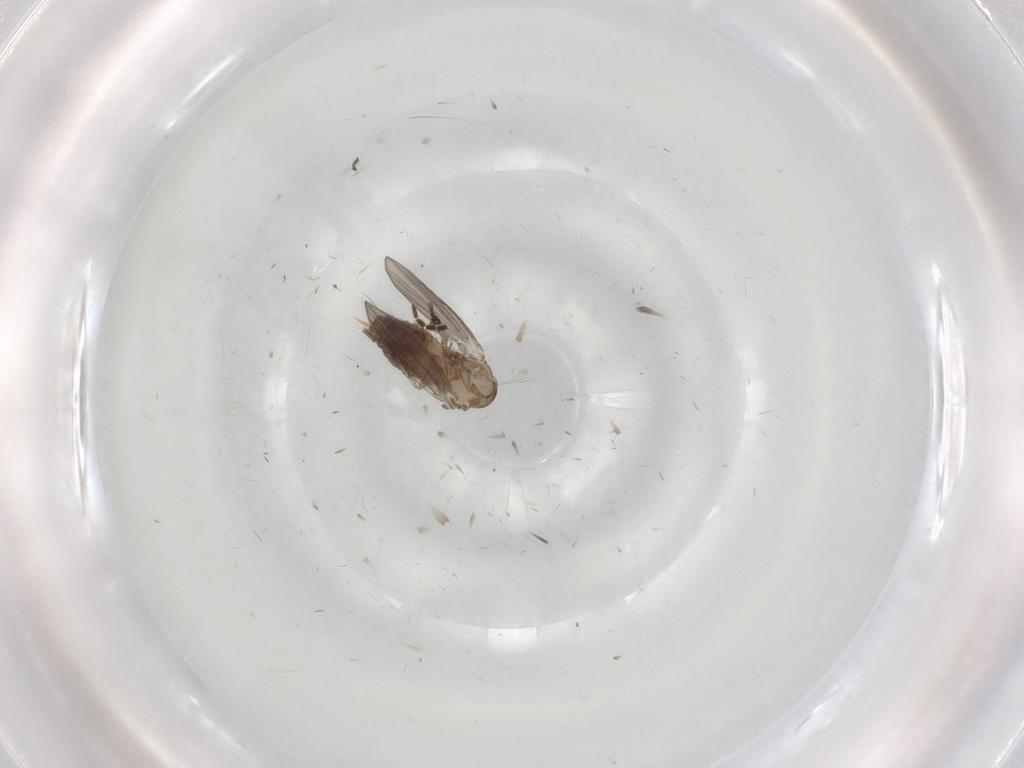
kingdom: Animalia
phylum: Arthropoda
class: Insecta
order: Diptera
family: Psychodidae
